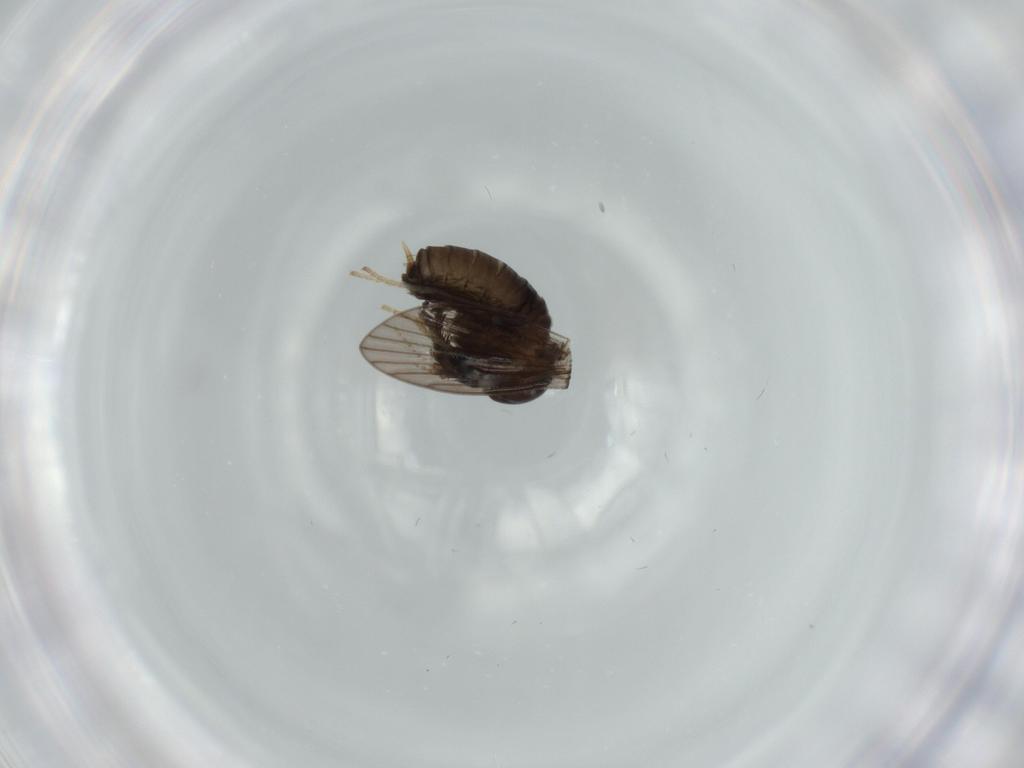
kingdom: Animalia
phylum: Arthropoda
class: Insecta
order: Diptera
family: Psychodidae
